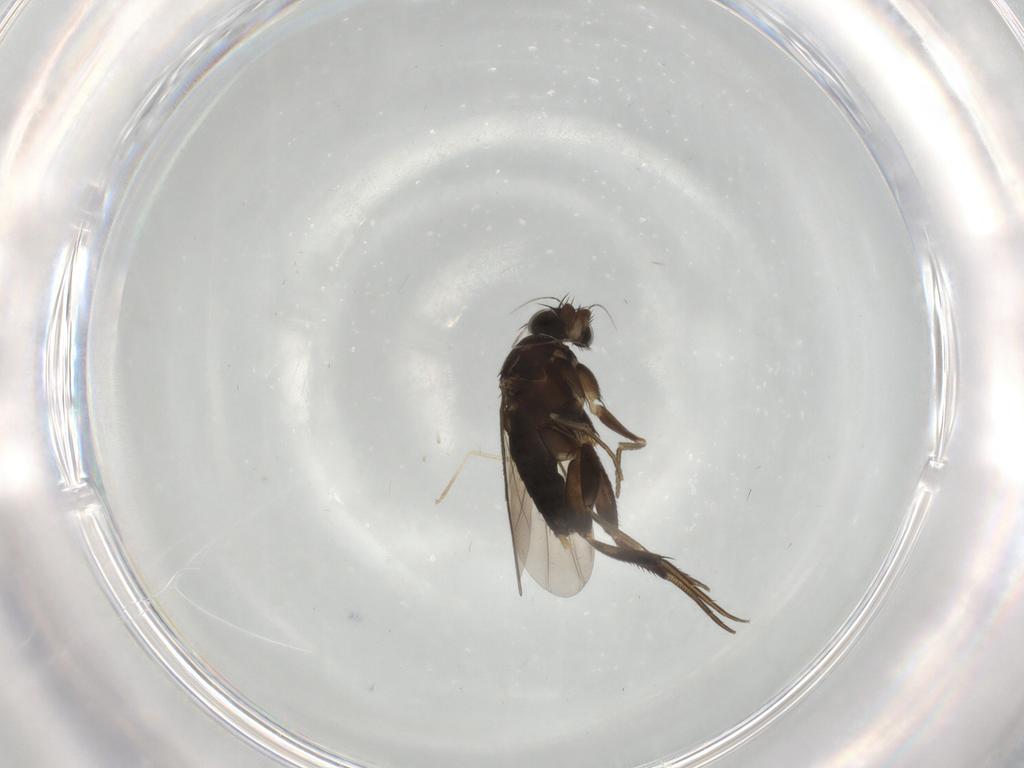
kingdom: Animalia
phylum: Arthropoda
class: Insecta
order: Diptera
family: Phoridae
